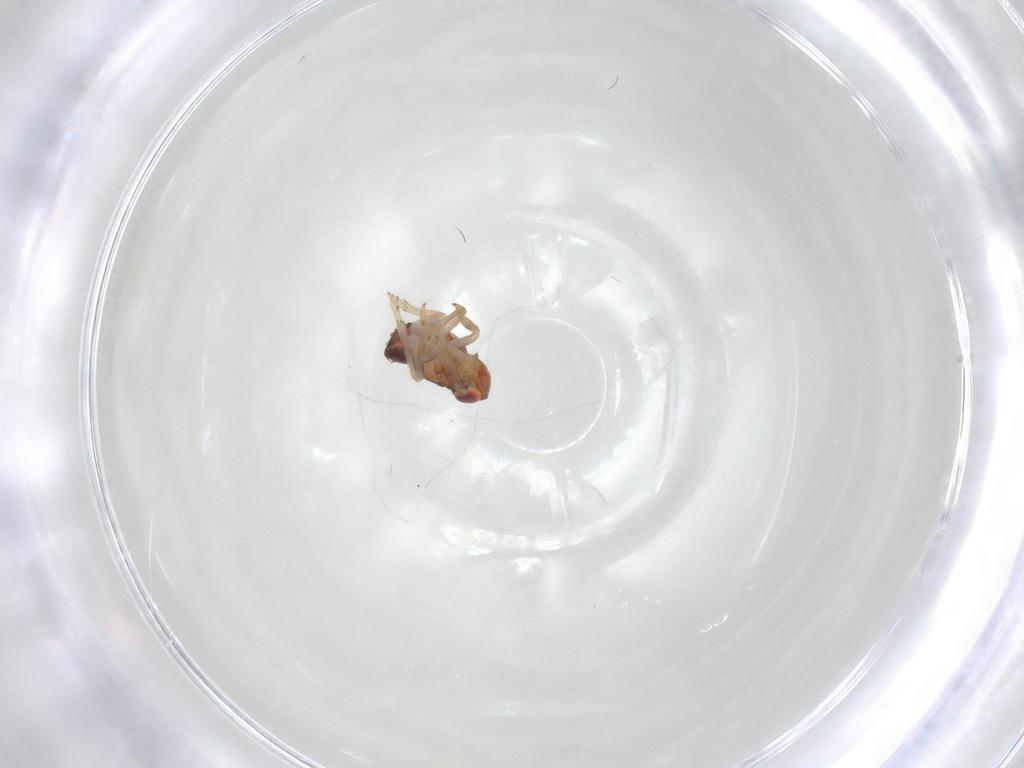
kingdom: Animalia
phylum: Arthropoda
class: Insecta
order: Hemiptera
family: Issidae
